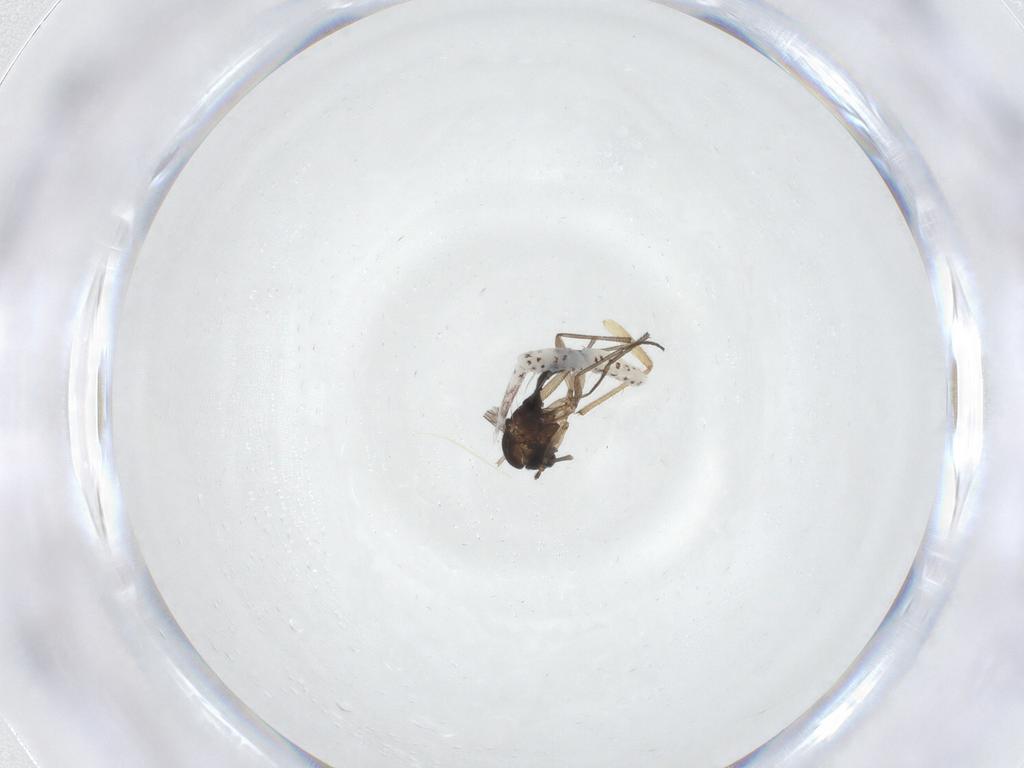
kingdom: Animalia
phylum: Arthropoda
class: Insecta
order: Diptera
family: Sciaridae
